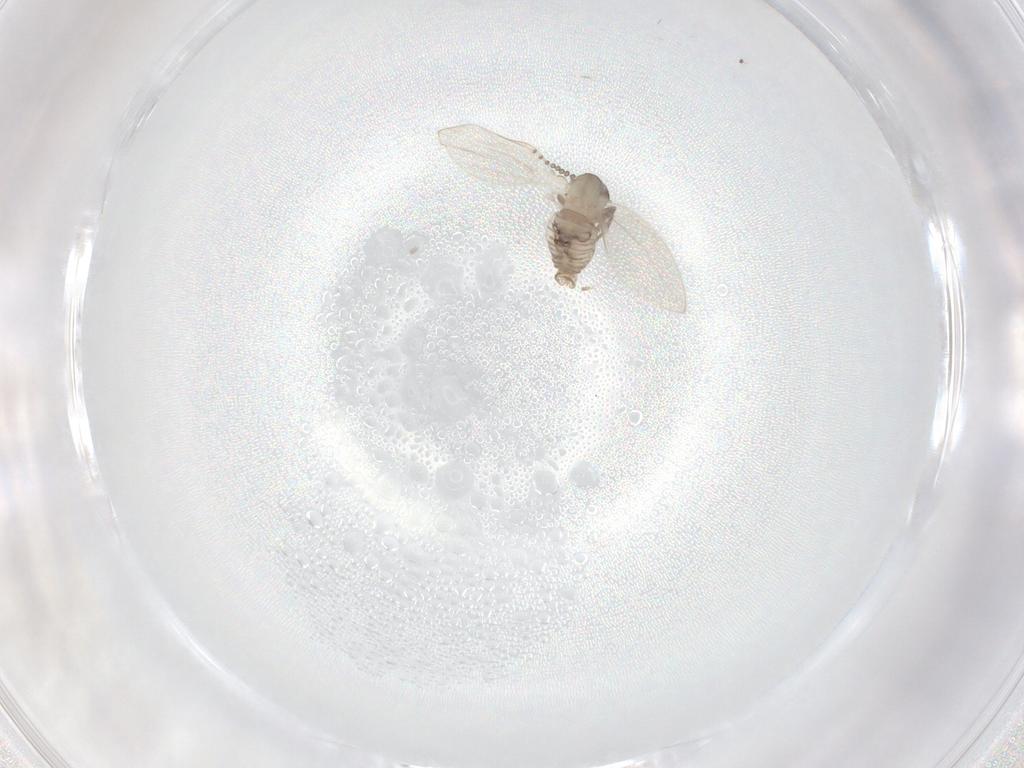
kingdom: Animalia
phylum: Arthropoda
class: Insecta
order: Diptera
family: Psychodidae
